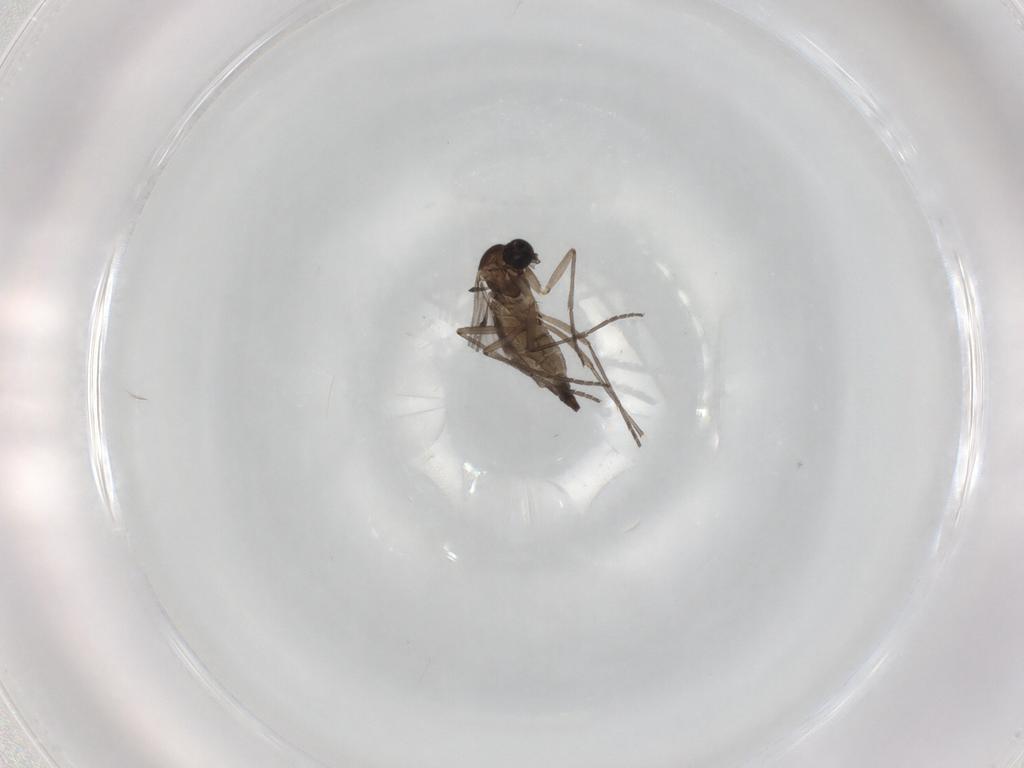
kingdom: Animalia
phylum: Arthropoda
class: Insecta
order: Diptera
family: Sciaridae
